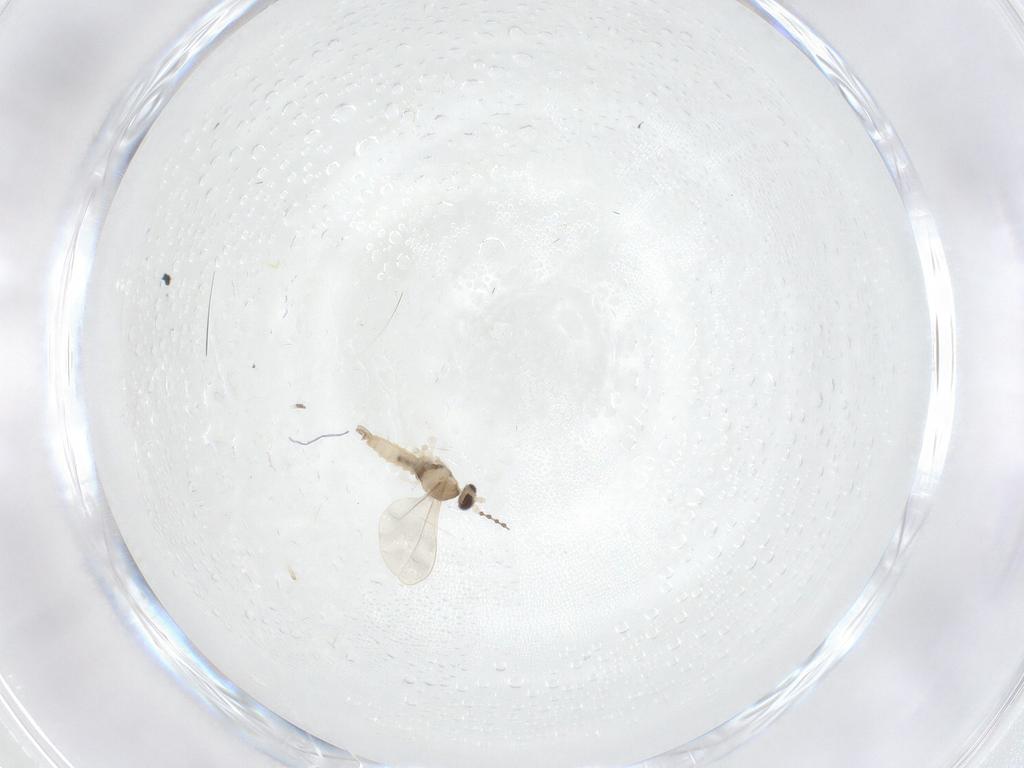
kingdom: Animalia
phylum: Arthropoda
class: Insecta
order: Diptera
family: Cecidomyiidae
